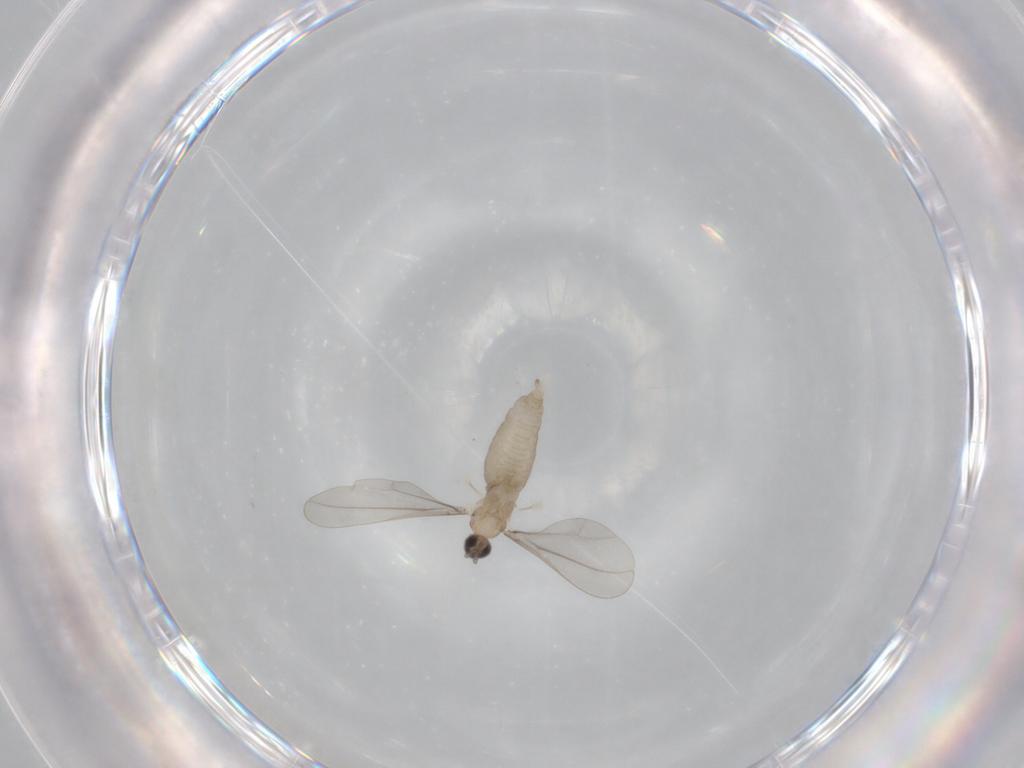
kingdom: Animalia
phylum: Arthropoda
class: Insecta
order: Diptera
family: Cecidomyiidae
